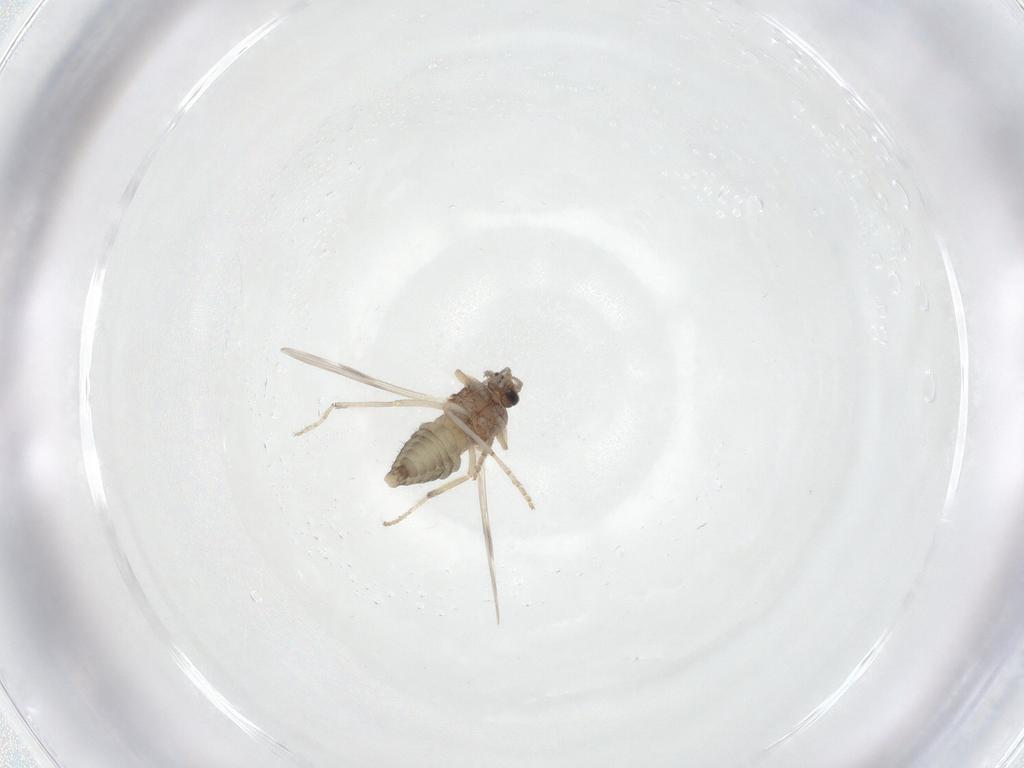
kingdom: Animalia
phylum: Arthropoda
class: Insecta
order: Diptera
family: Ceratopogonidae
